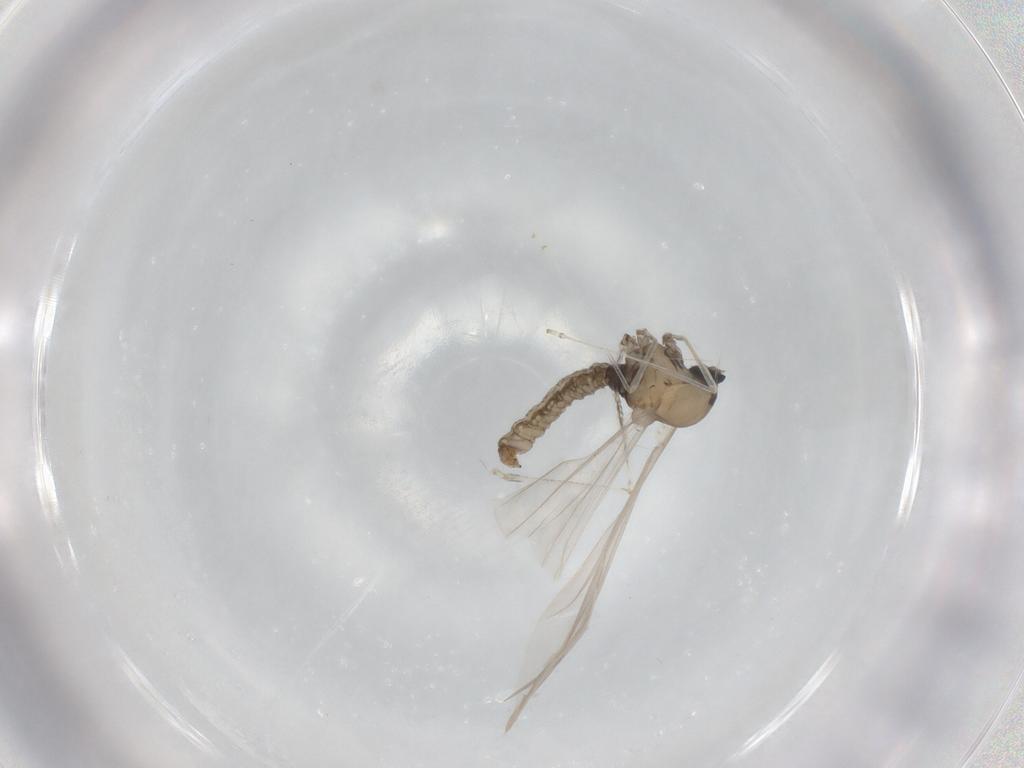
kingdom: Animalia
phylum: Arthropoda
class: Insecta
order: Diptera
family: Cecidomyiidae
